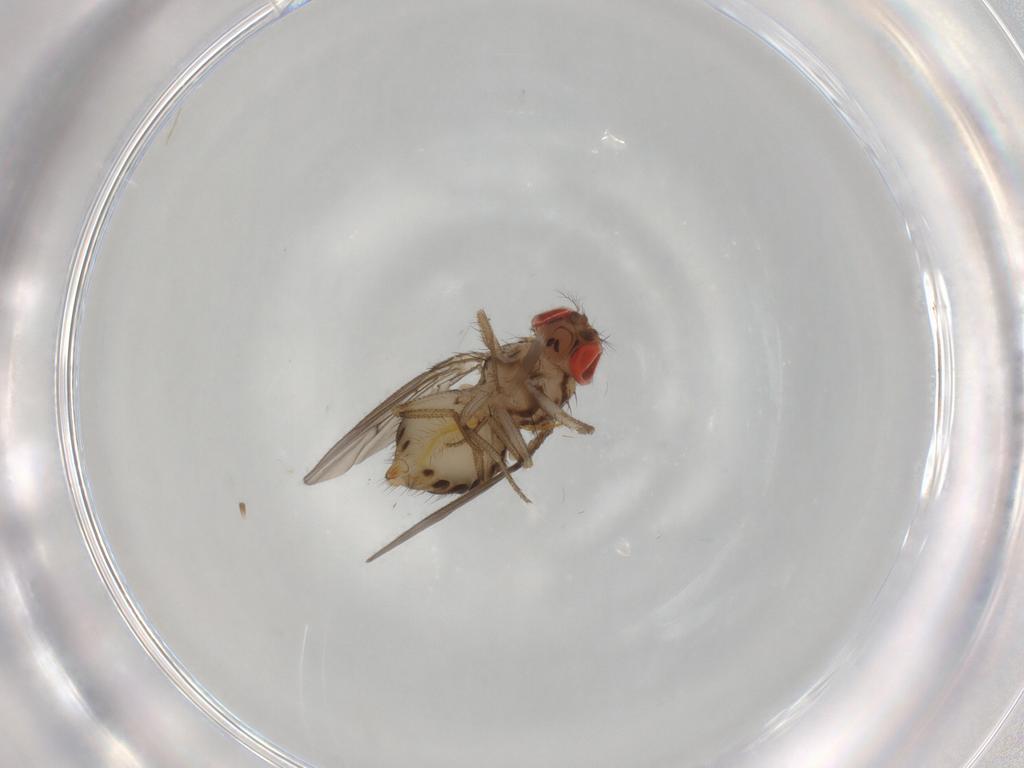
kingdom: Animalia
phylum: Arthropoda
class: Insecta
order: Diptera
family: Drosophilidae
